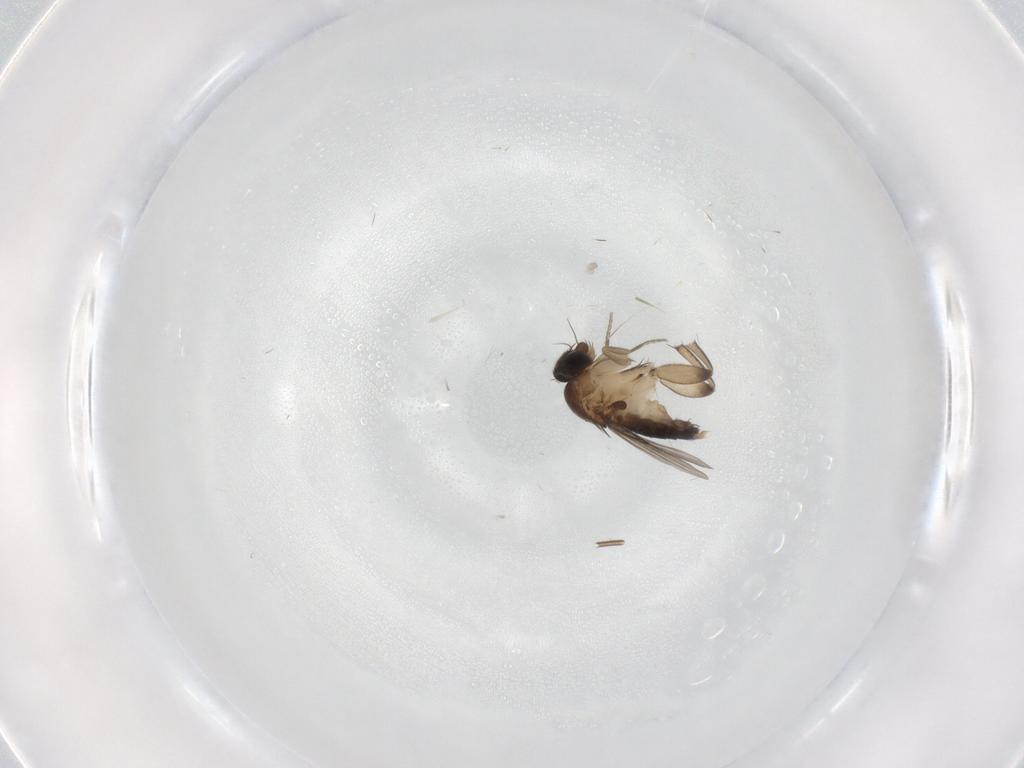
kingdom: Animalia
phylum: Arthropoda
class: Insecta
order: Diptera
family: Phoridae
